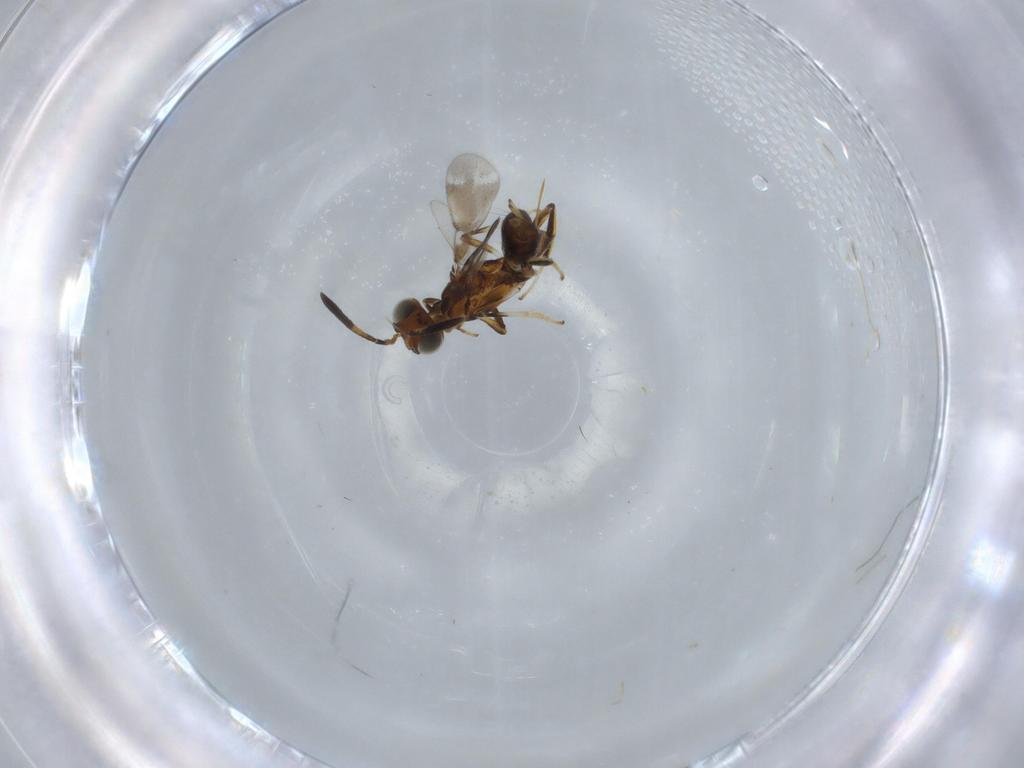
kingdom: Animalia
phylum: Arthropoda
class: Insecta
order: Hymenoptera
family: Eupelmidae
